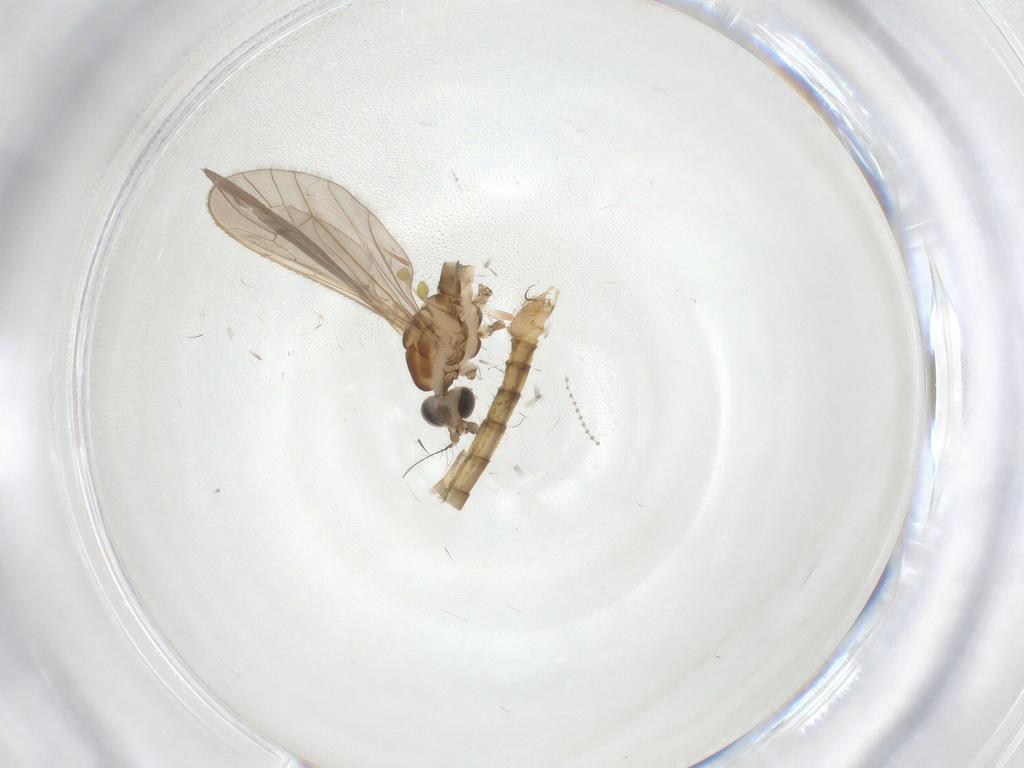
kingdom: Animalia
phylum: Arthropoda
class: Insecta
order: Diptera
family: Limoniidae
